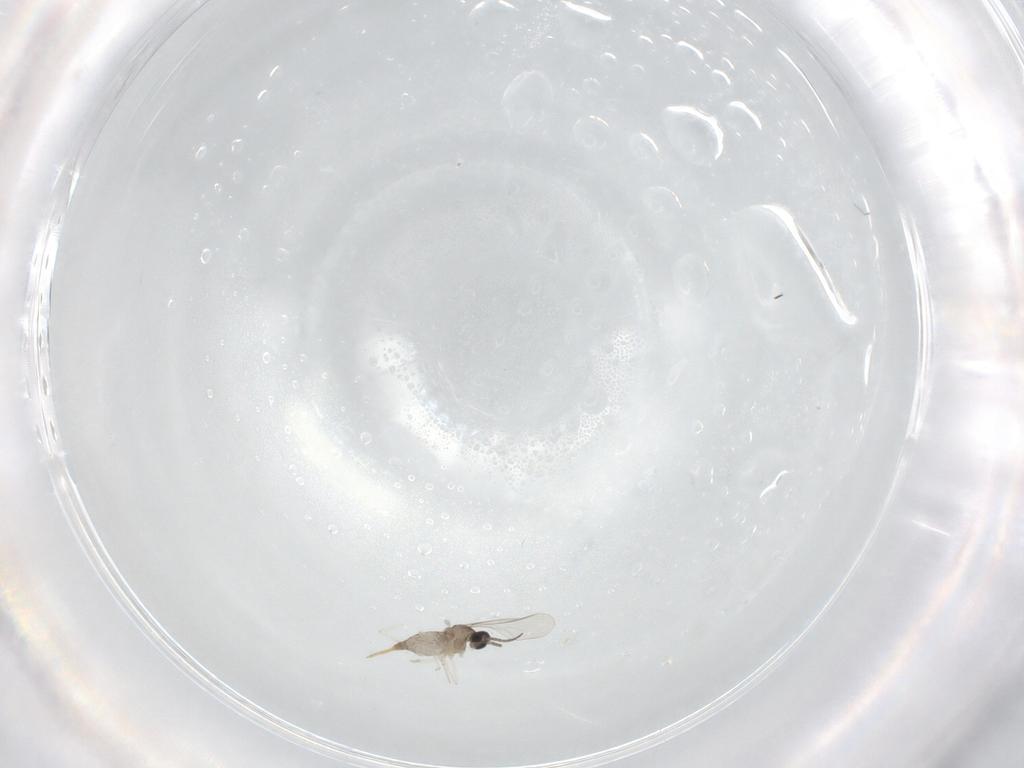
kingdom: Animalia
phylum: Arthropoda
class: Insecta
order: Diptera
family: Cecidomyiidae
